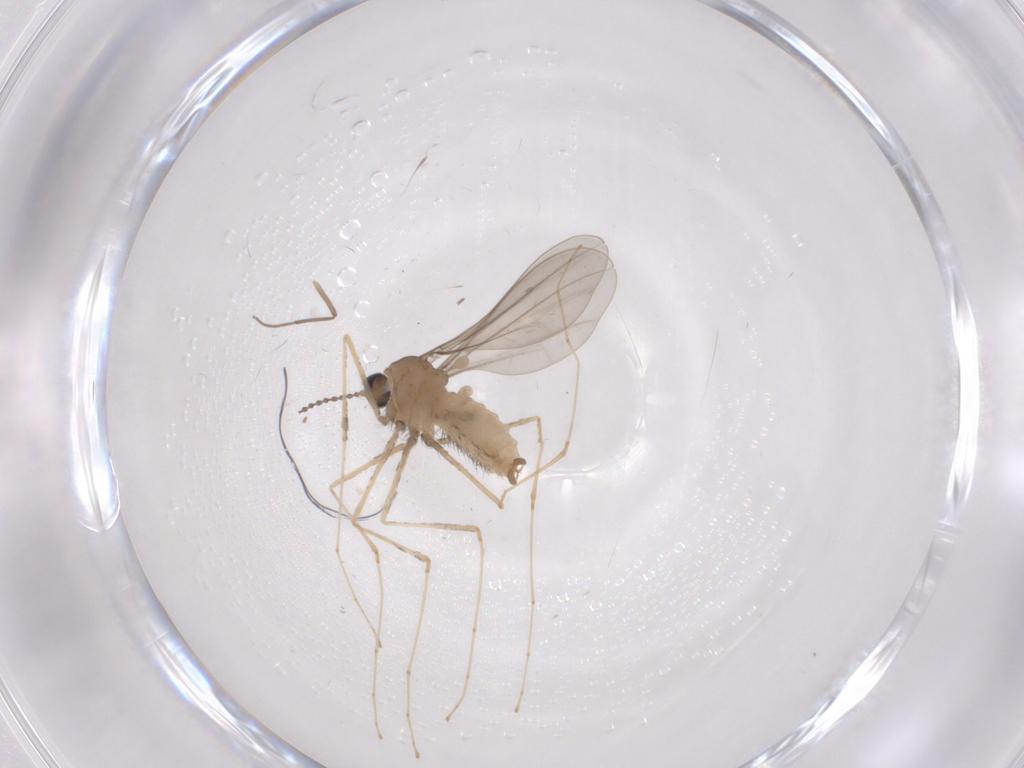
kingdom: Animalia
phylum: Arthropoda
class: Insecta
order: Diptera
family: Cecidomyiidae
